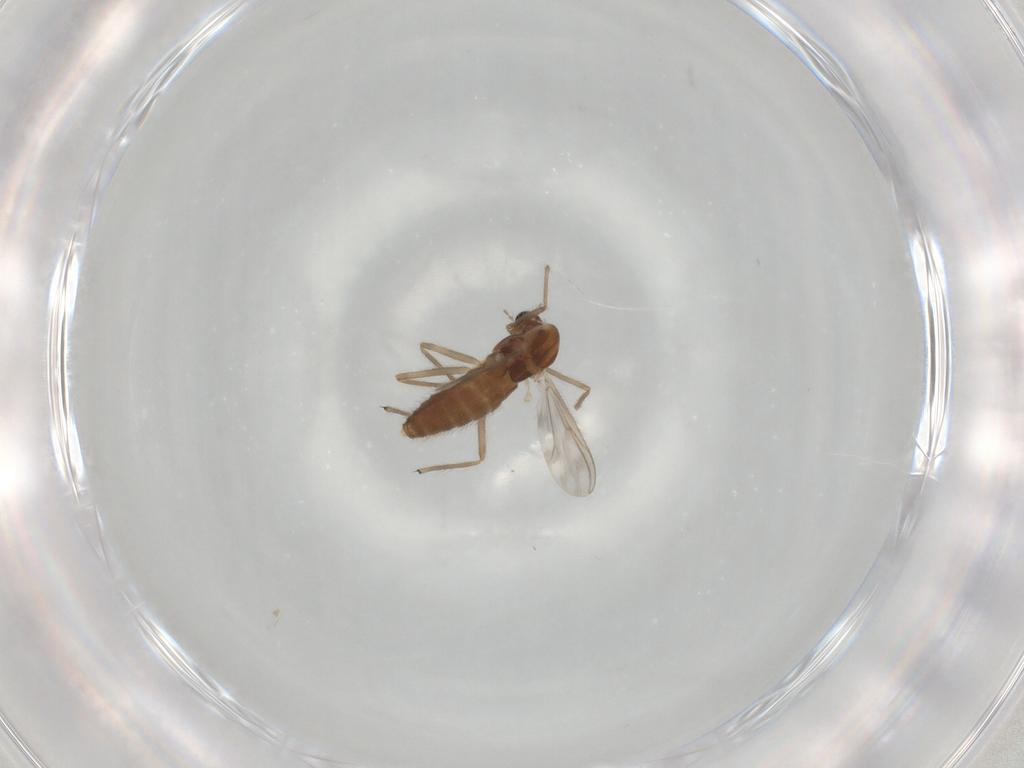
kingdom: Animalia
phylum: Arthropoda
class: Insecta
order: Diptera
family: Chironomidae
